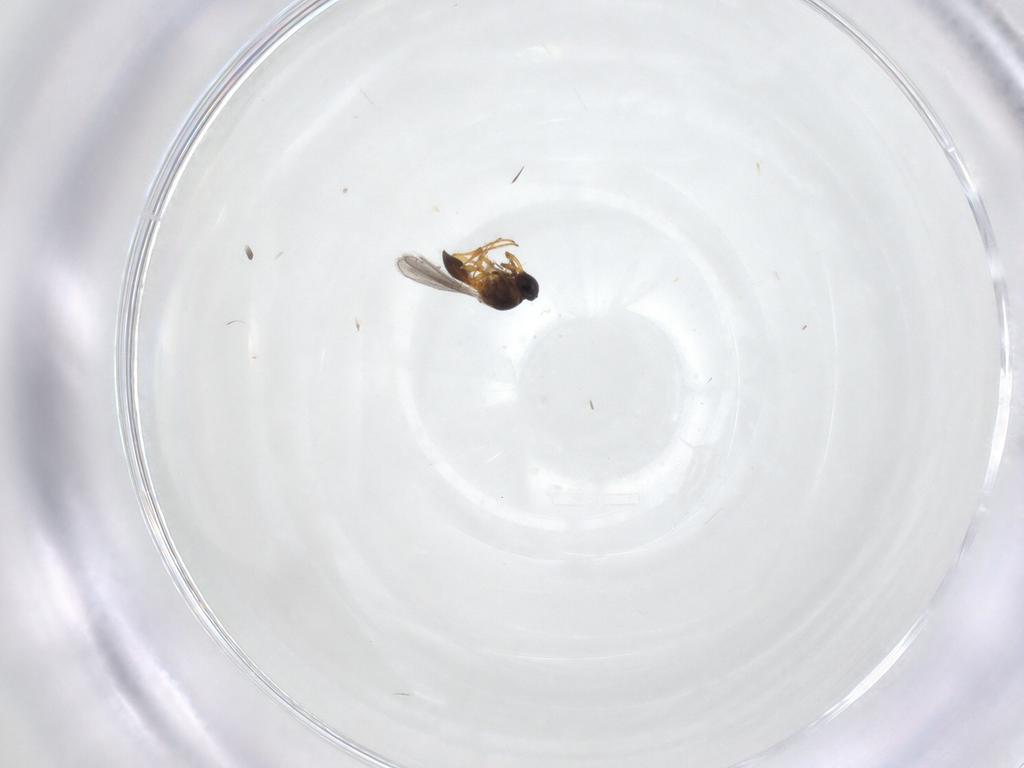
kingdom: Animalia
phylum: Arthropoda
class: Insecta
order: Hymenoptera
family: Platygastridae
